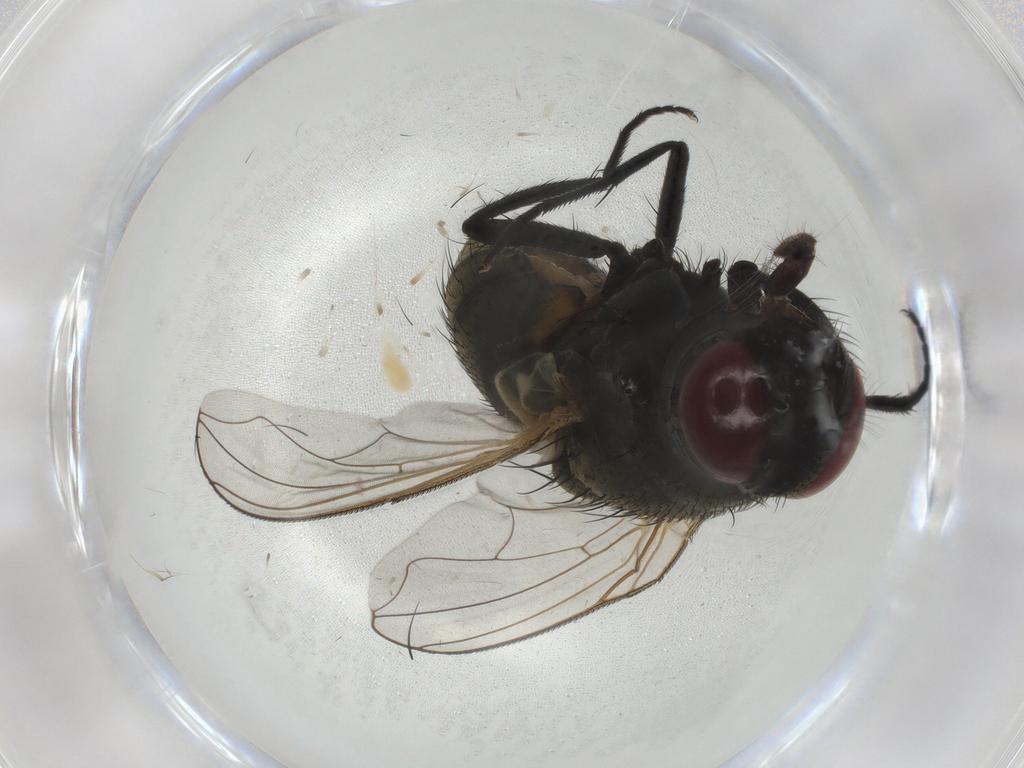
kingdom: Animalia
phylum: Arthropoda
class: Insecta
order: Diptera
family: Muscidae
